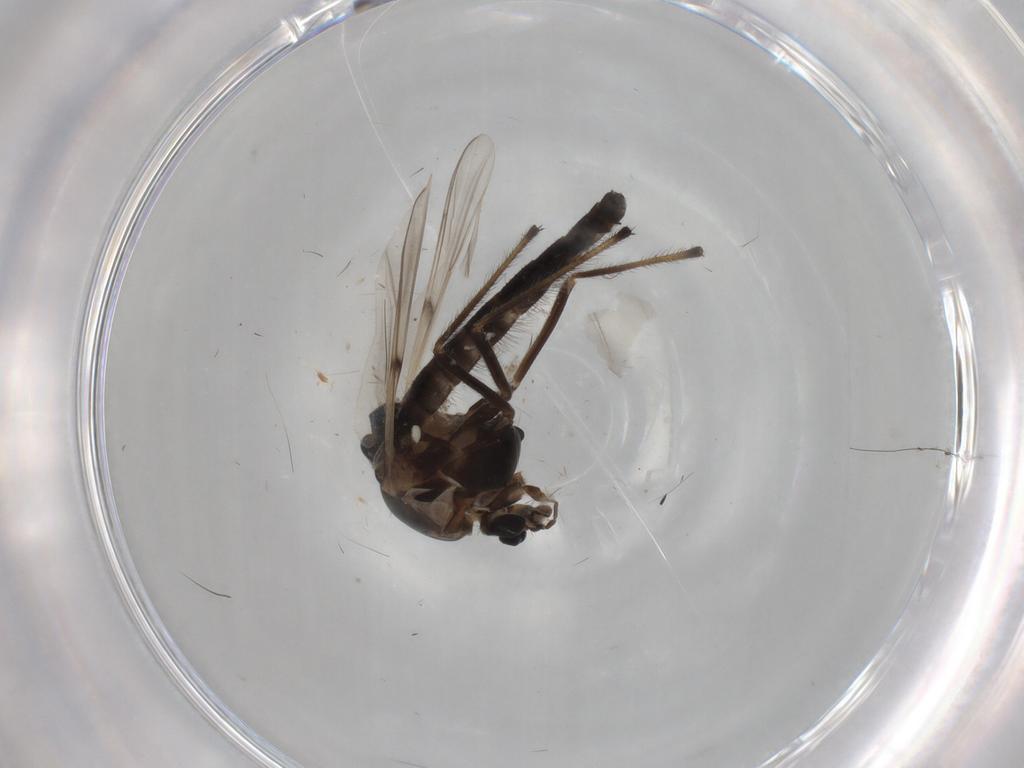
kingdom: Animalia
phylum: Arthropoda
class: Insecta
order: Diptera
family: Chironomidae
